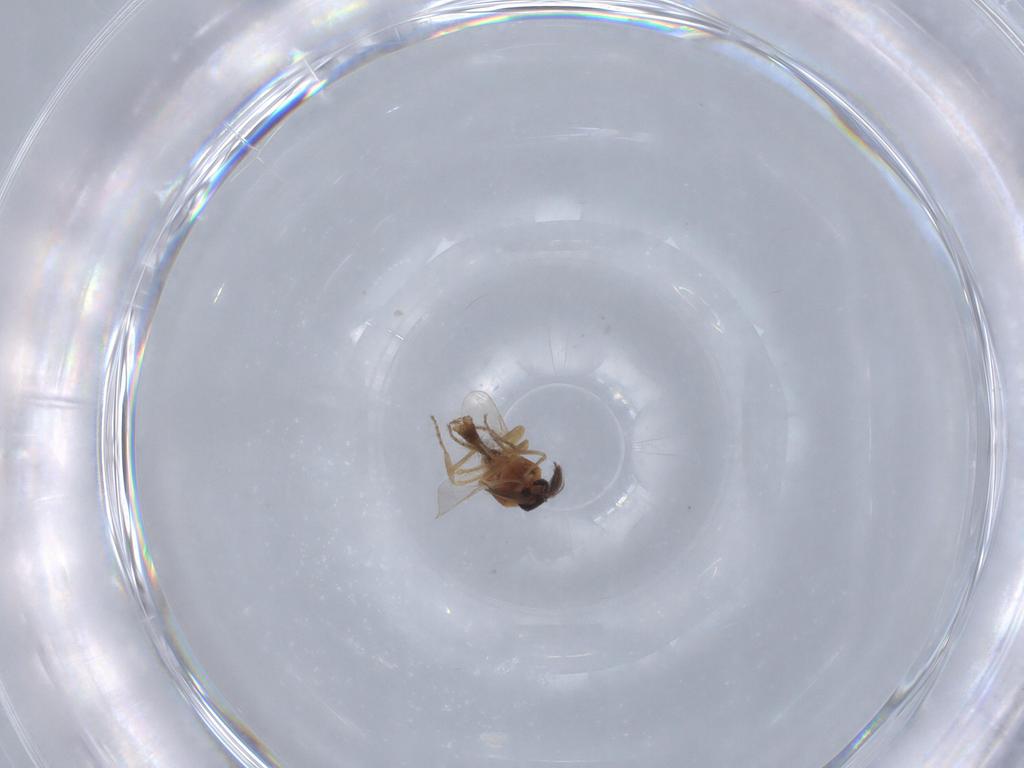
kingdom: Animalia
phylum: Arthropoda
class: Insecta
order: Diptera
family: Ceratopogonidae
